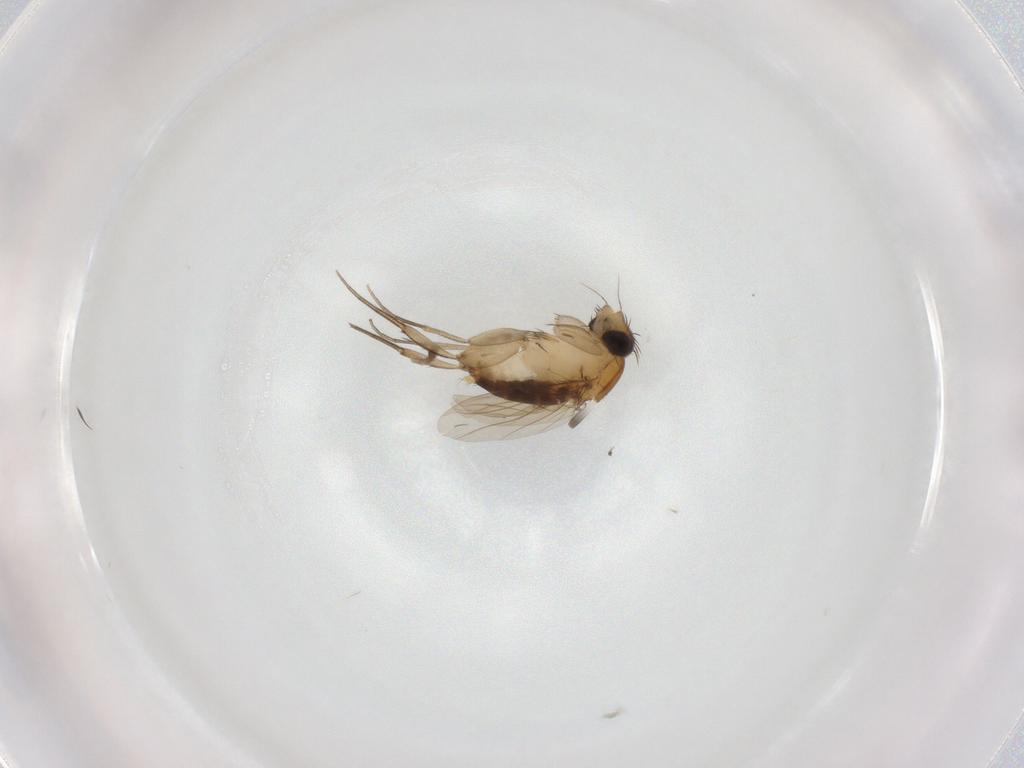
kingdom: Animalia
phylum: Arthropoda
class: Insecta
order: Diptera
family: Phoridae
